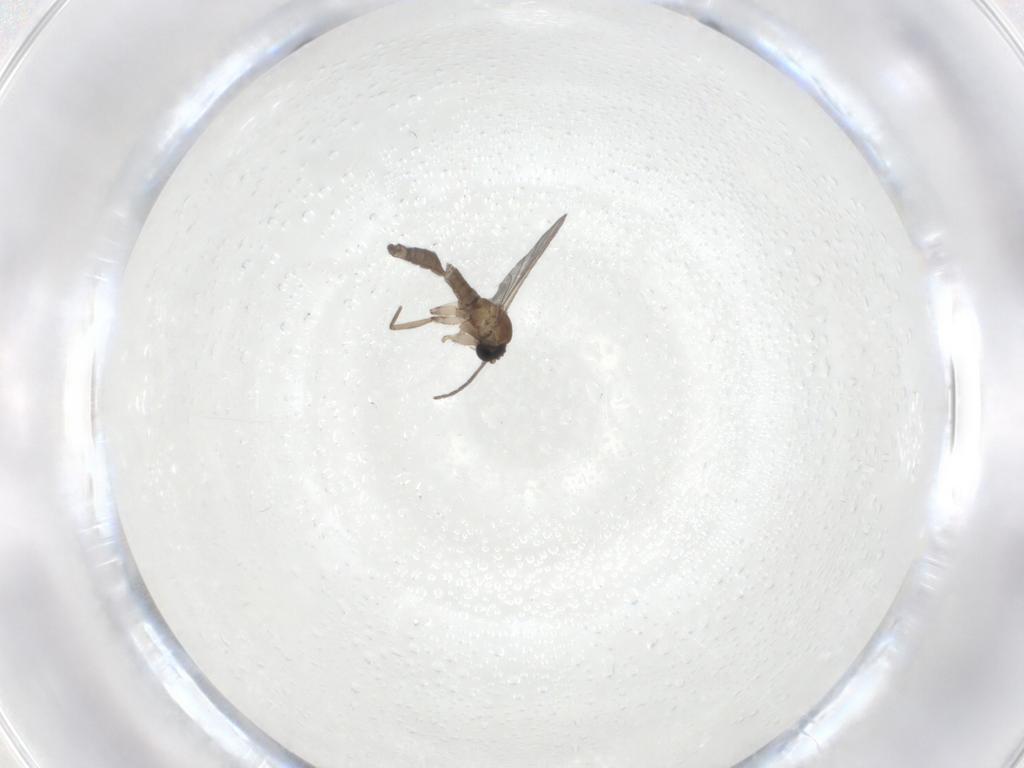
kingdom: Animalia
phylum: Arthropoda
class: Insecta
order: Diptera
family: Sciaridae
